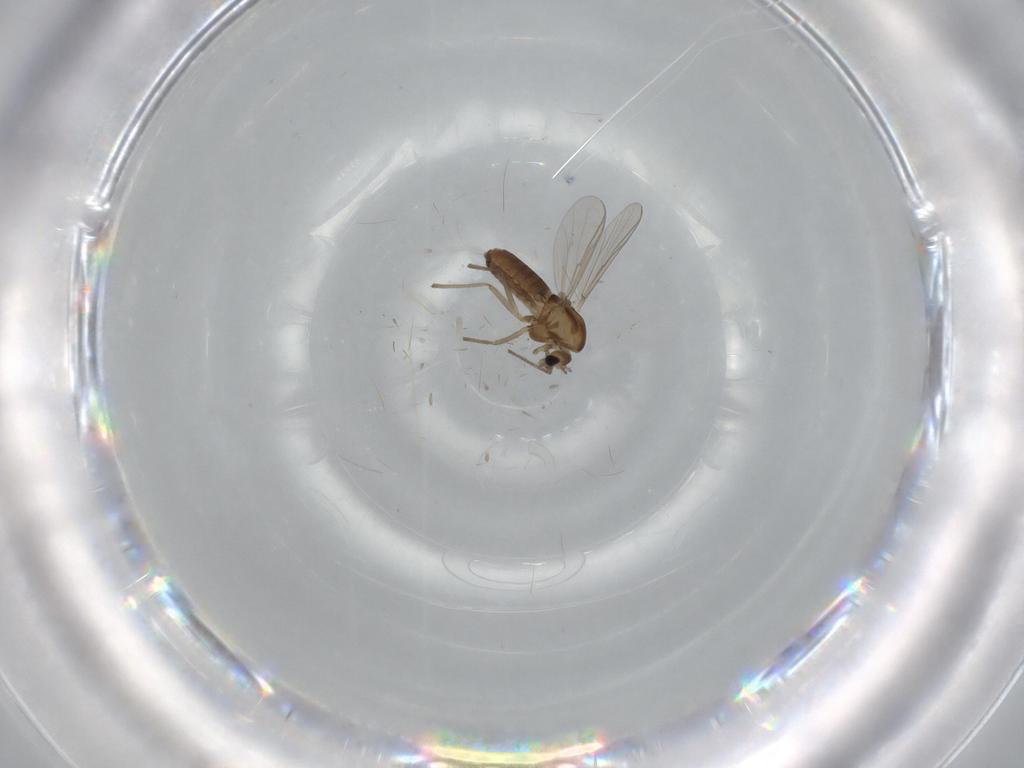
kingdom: Animalia
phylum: Arthropoda
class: Insecta
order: Diptera
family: Chironomidae
